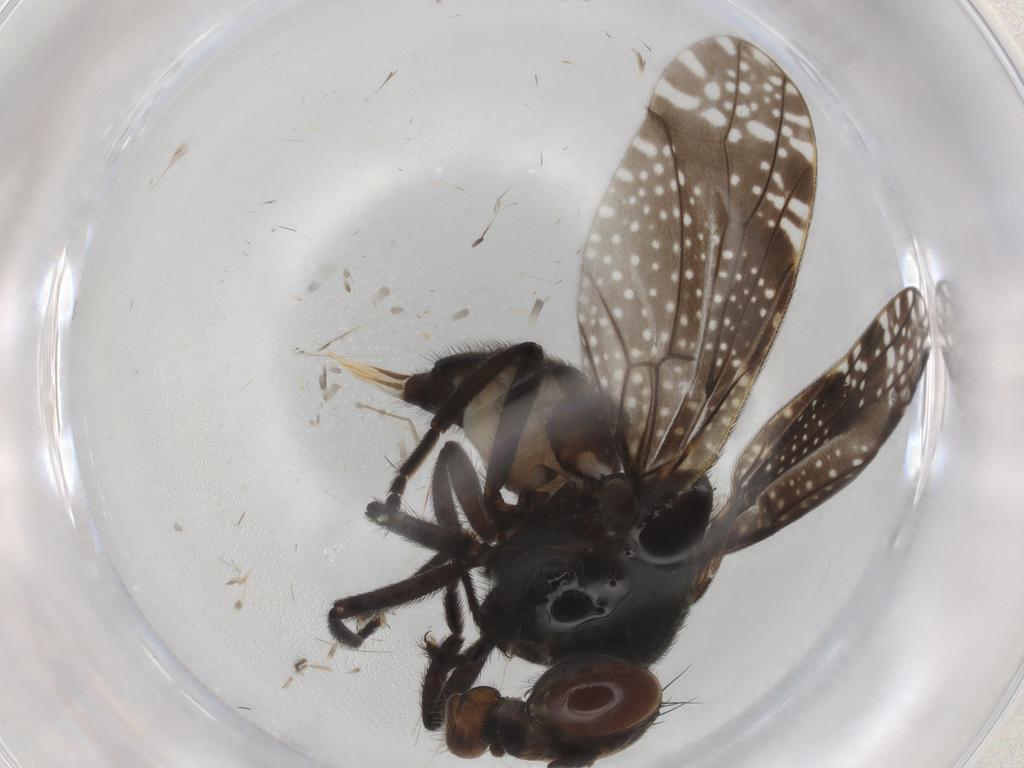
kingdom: Animalia
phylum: Arthropoda
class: Insecta
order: Diptera
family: Ceratopogonidae
